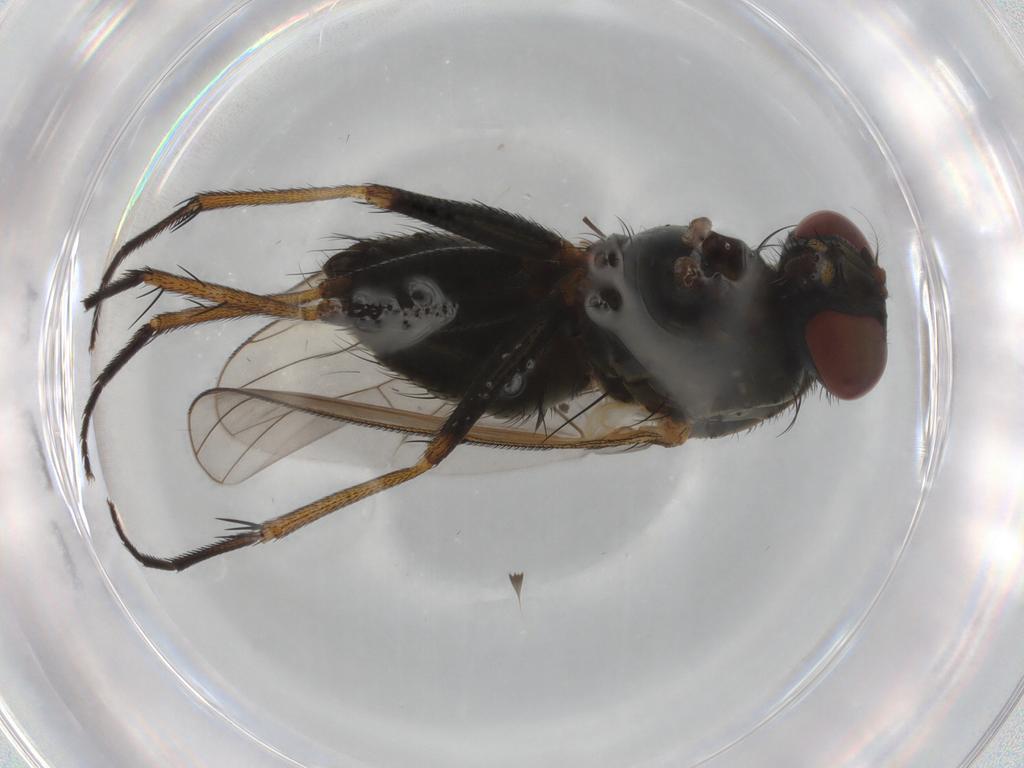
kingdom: Animalia
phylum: Arthropoda
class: Insecta
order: Diptera
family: Muscidae
